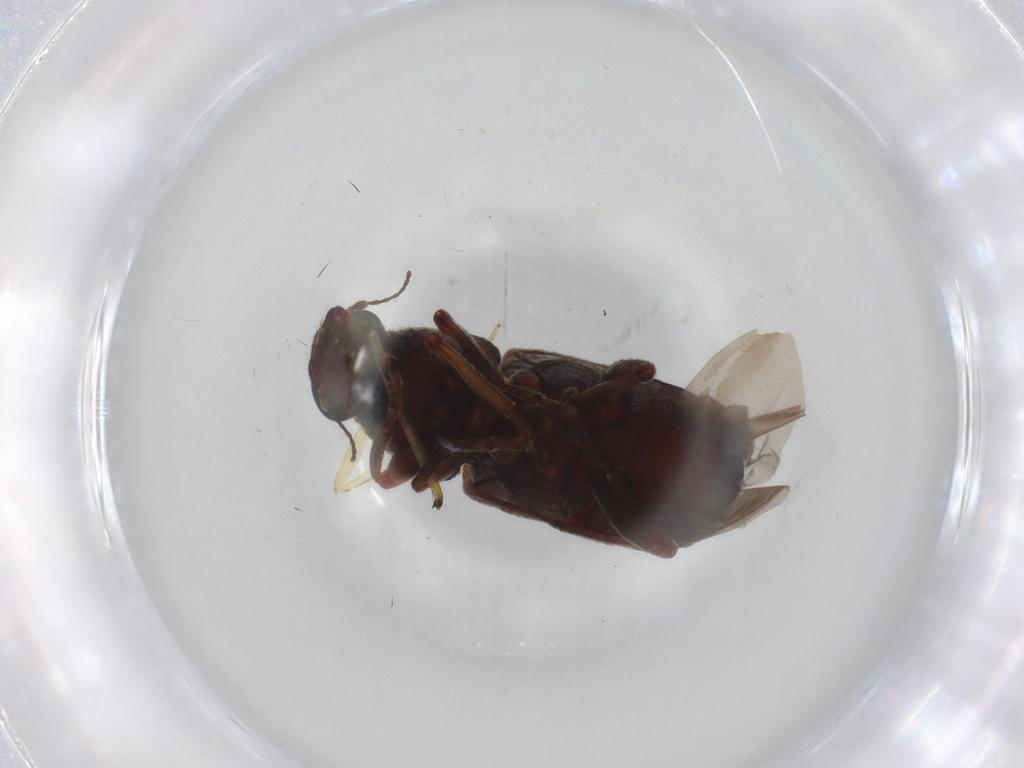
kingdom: Animalia
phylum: Arthropoda
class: Insecta
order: Coleoptera
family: Anthribidae
